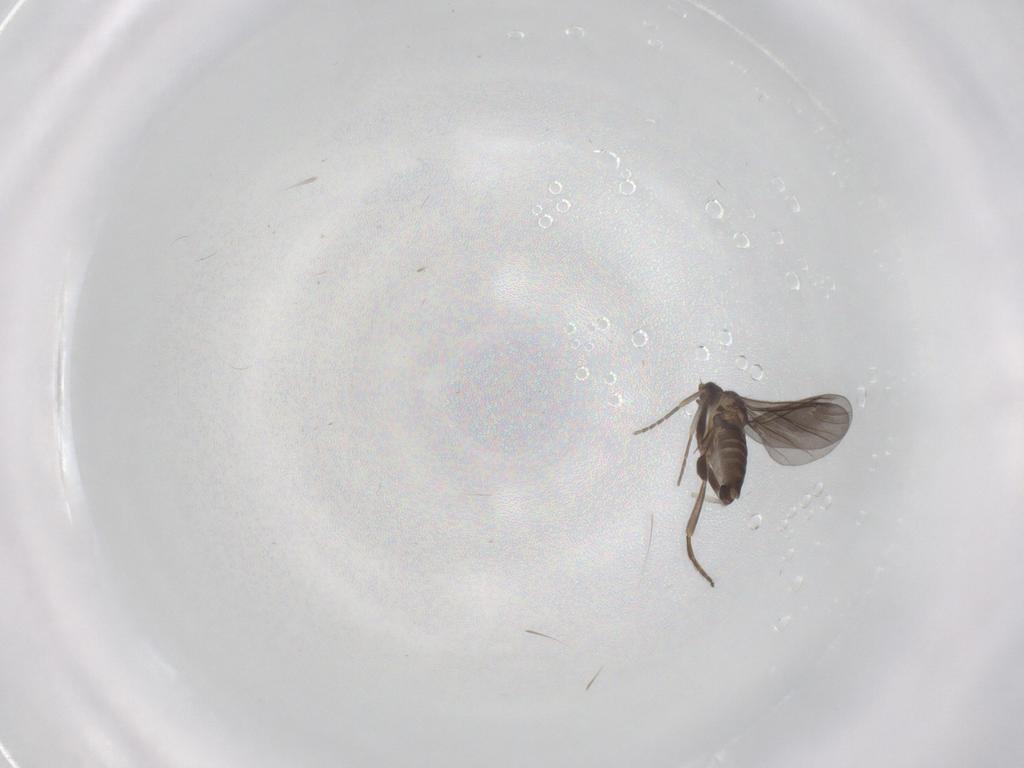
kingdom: Animalia
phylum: Arthropoda
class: Insecta
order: Diptera
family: Phoridae
